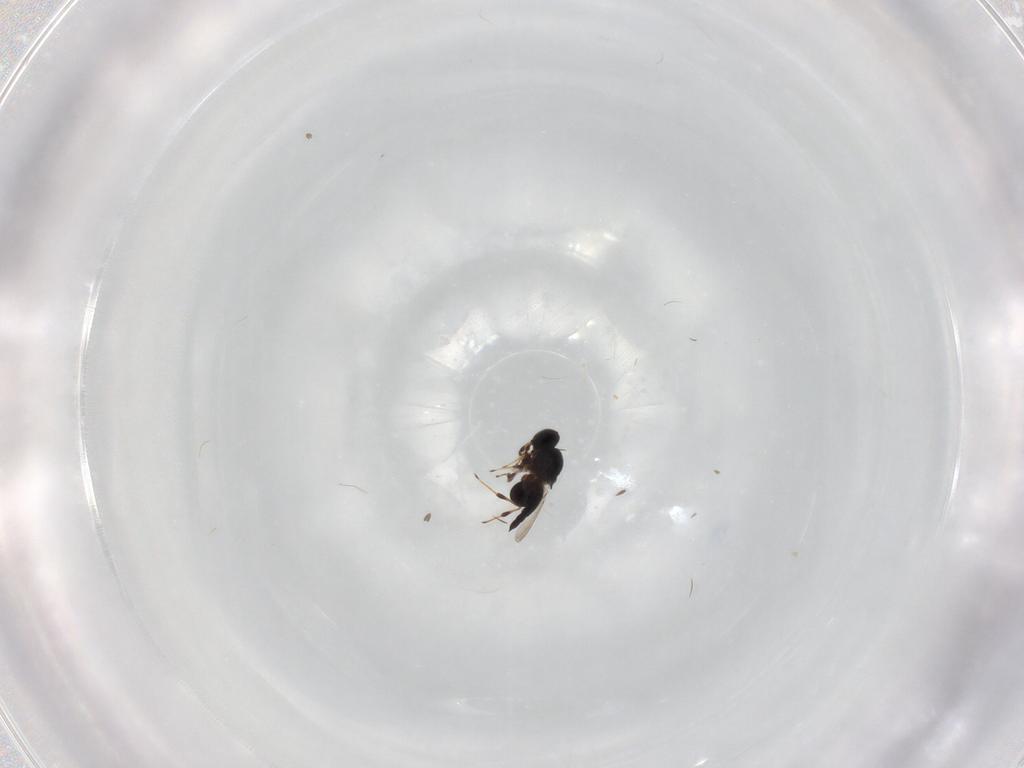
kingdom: Animalia
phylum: Arthropoda
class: Insecta
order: Hymenoptera
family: Platygastridae
